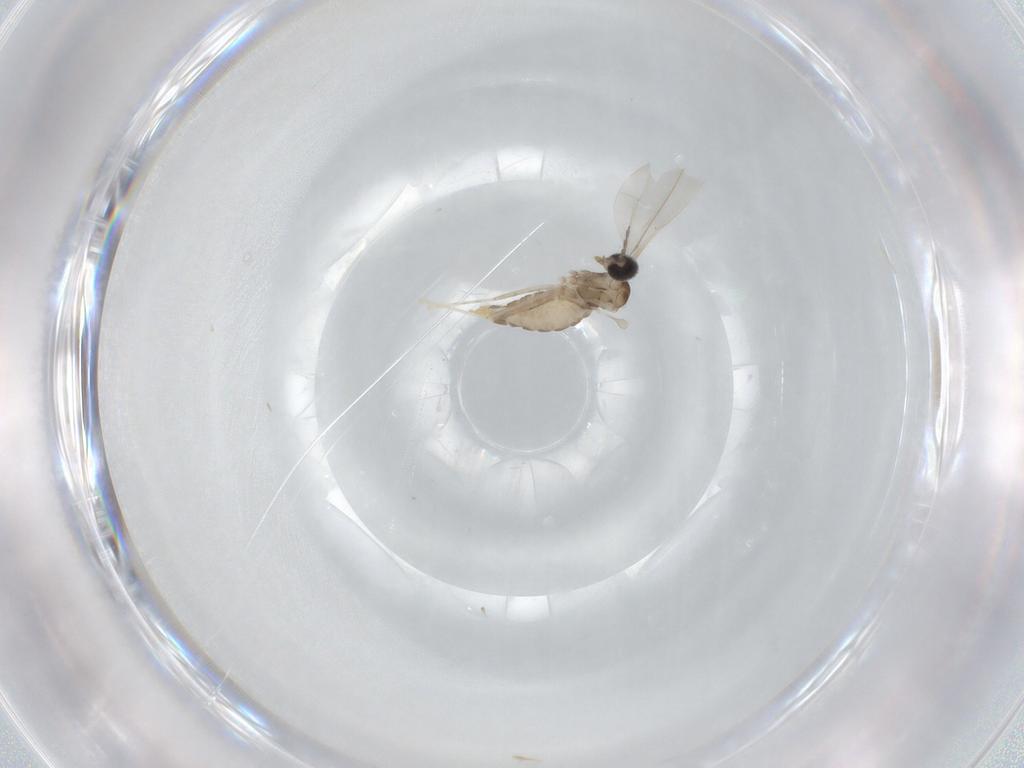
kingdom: Animalia
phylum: Arthropoda
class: Insecta
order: Diptera
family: Cecidomyiidae
